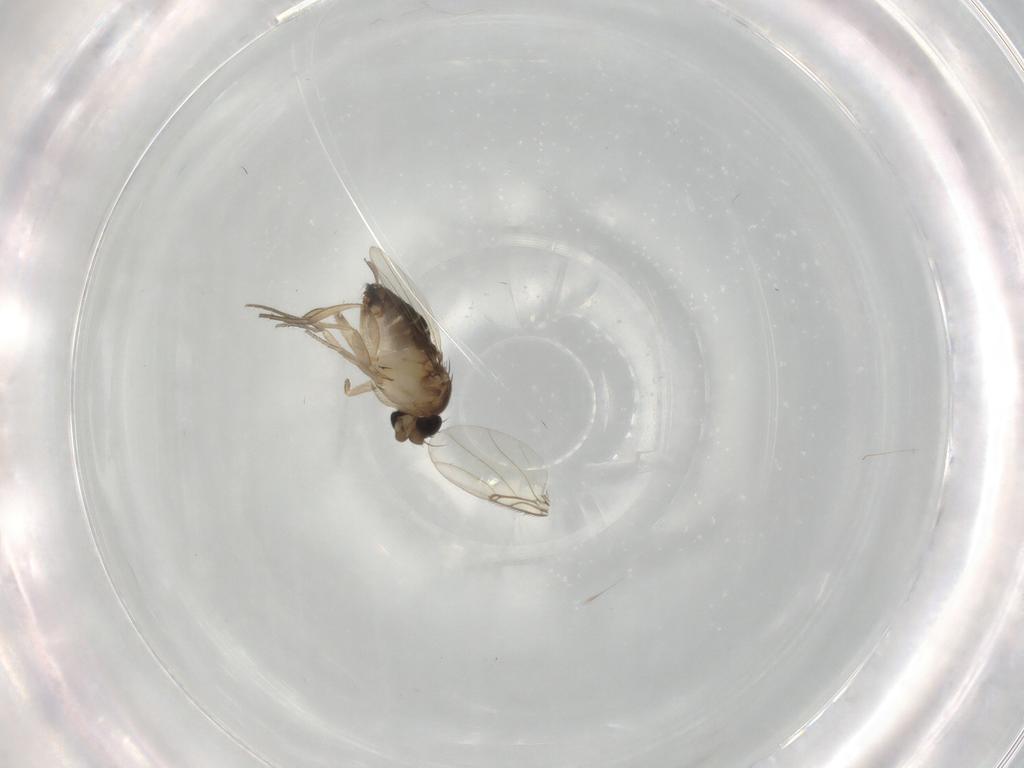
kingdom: Animalia
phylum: Arthropoda
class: Insecta
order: Diptera
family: Phoridae
